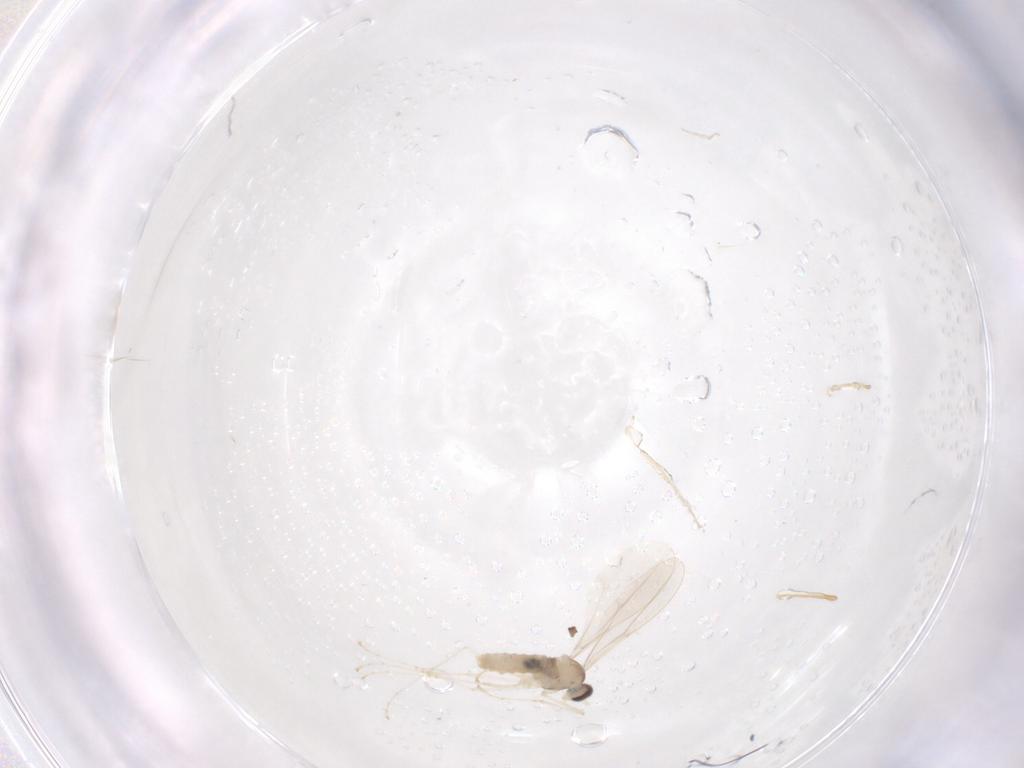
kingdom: Animalia
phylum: Arthropoda
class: Insecta
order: Diptera
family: Cecidomyiidae
